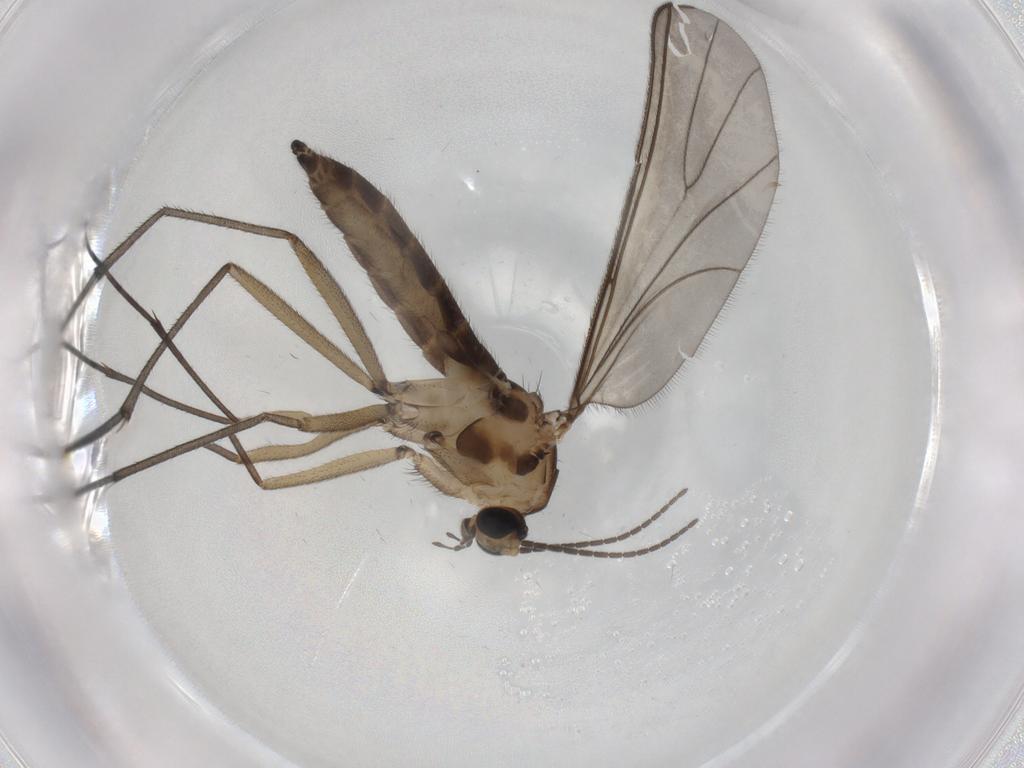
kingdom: Animalia
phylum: Arthropoda
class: Insecta
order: Diptera
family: Sciaridae
